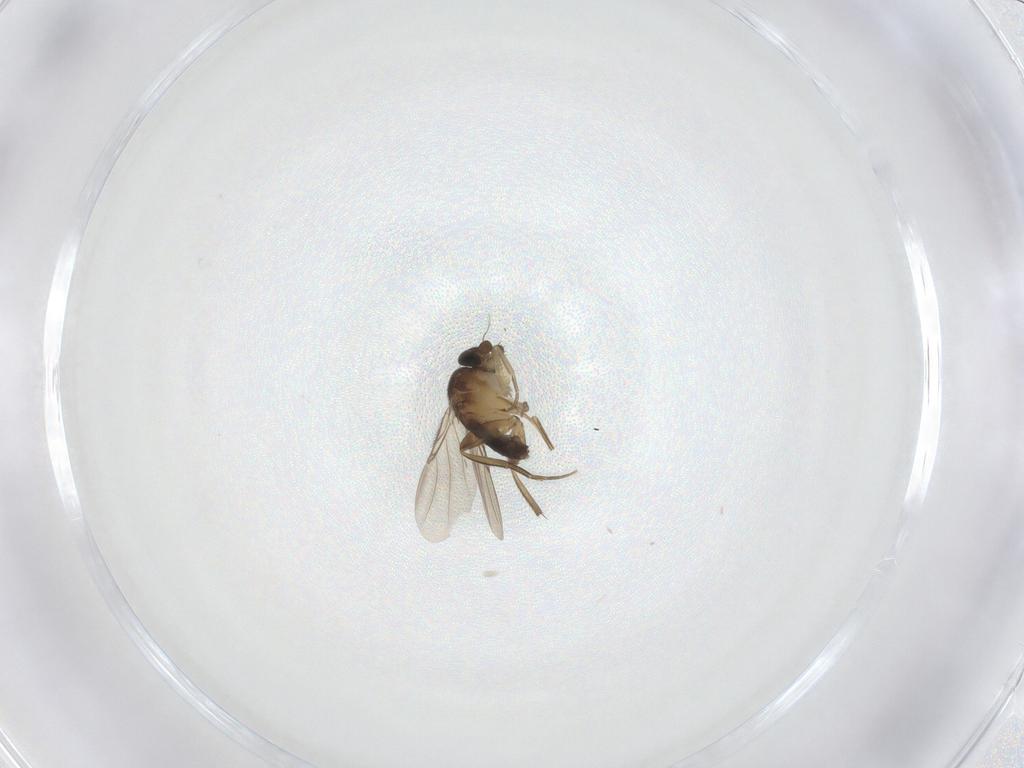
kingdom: Animalia
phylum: Arthropoda
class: Insecta
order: Diptera
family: Phoridae
